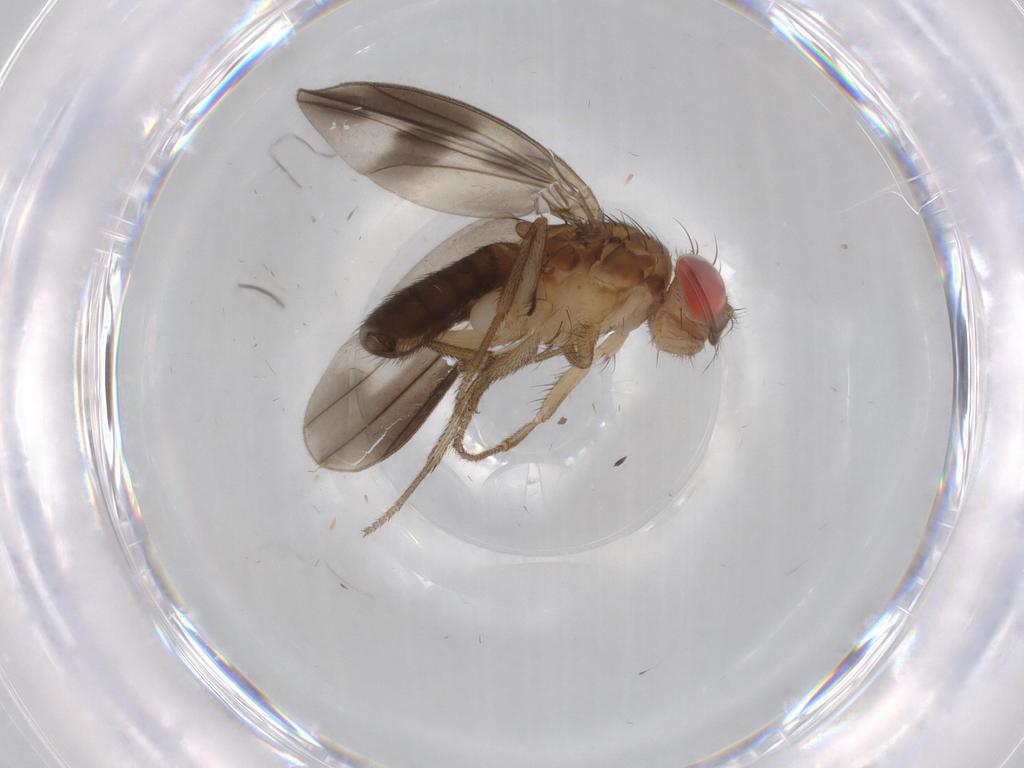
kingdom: Animalia
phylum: Arthropoda
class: Insecta
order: Diptera
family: Drosophilidae
